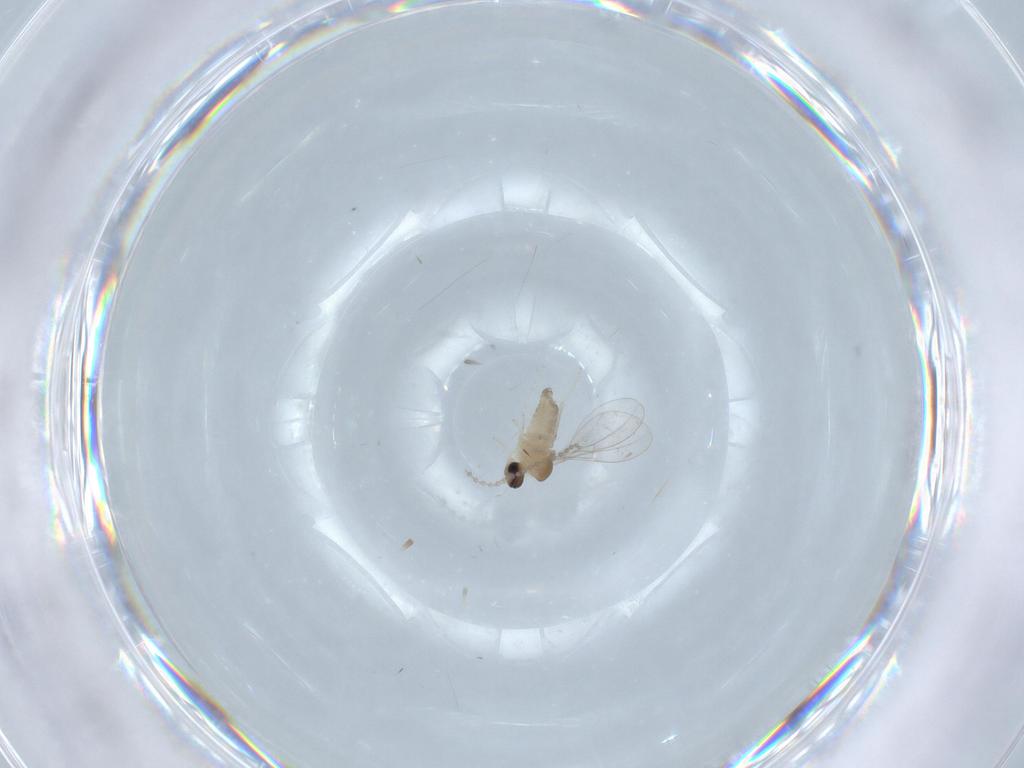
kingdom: Animalia
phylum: Arthropoda
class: Insecta
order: Diptera
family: Cecidomyiidae
